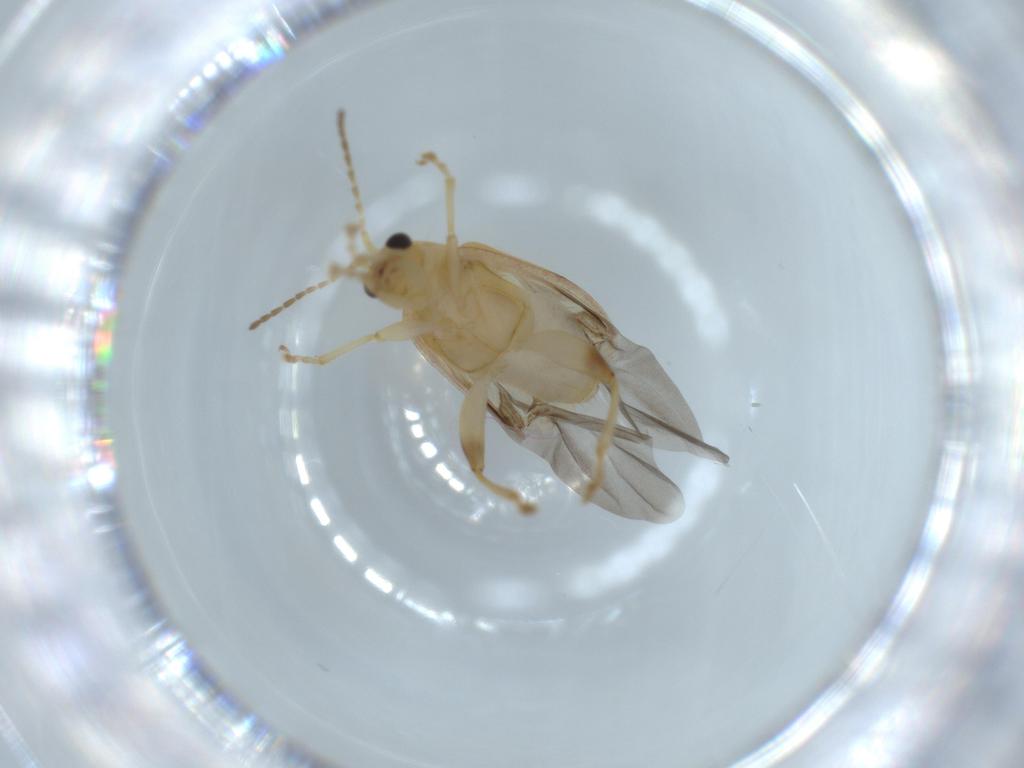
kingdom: Animalia
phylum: Arthropoda
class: Insecta
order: Coleoptera
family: Chrysomelidae
